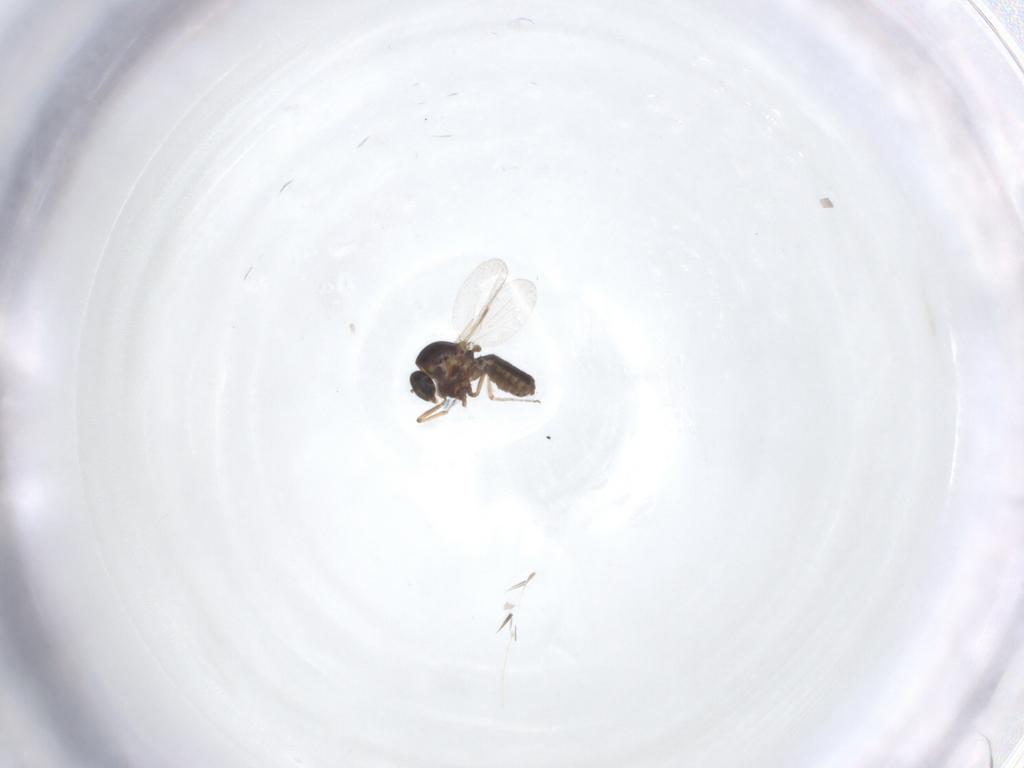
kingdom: Animalia
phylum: Arthropoda
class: Insecta
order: Diptera
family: Ceratopogonidae
